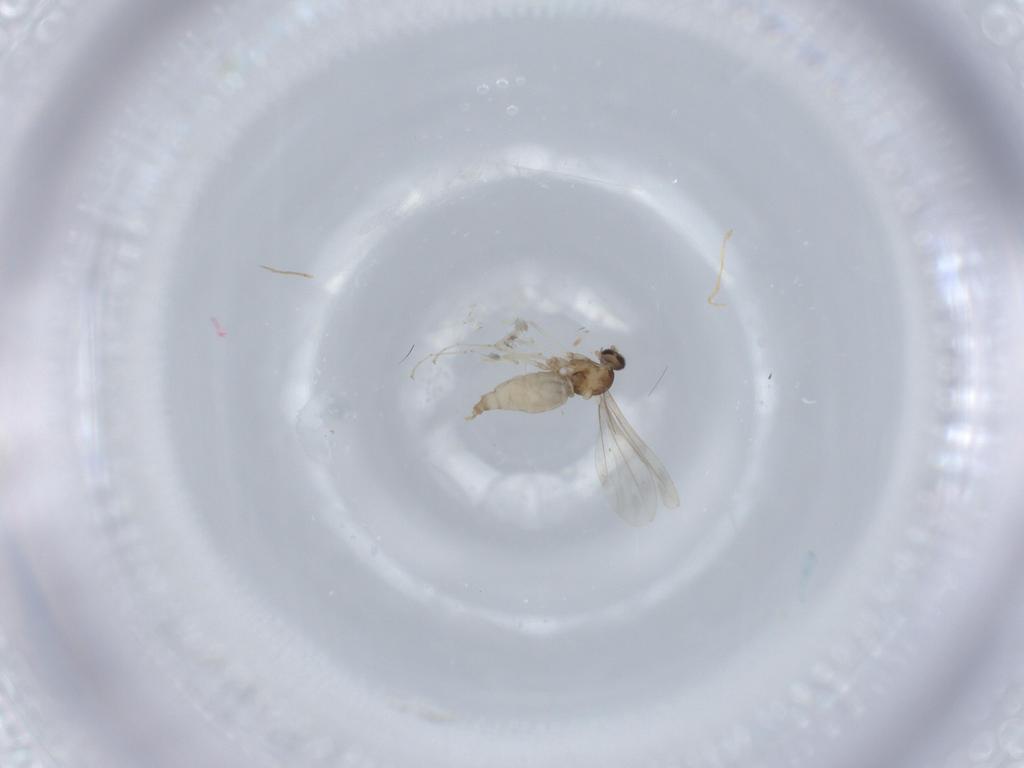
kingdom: Animalia
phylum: Arthropoda
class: Insecta
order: Diptera
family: Cecidomyiidae
